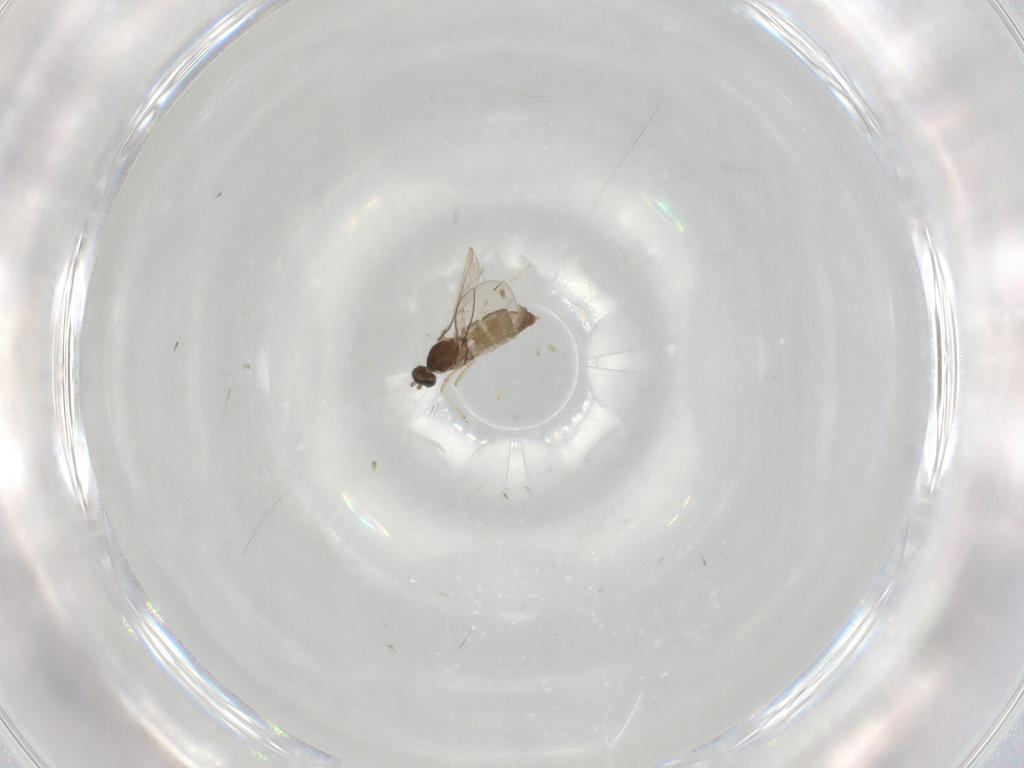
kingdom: Animalia
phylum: Arthropoda
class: Insecta
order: Diptera
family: Cecidomyiidae
